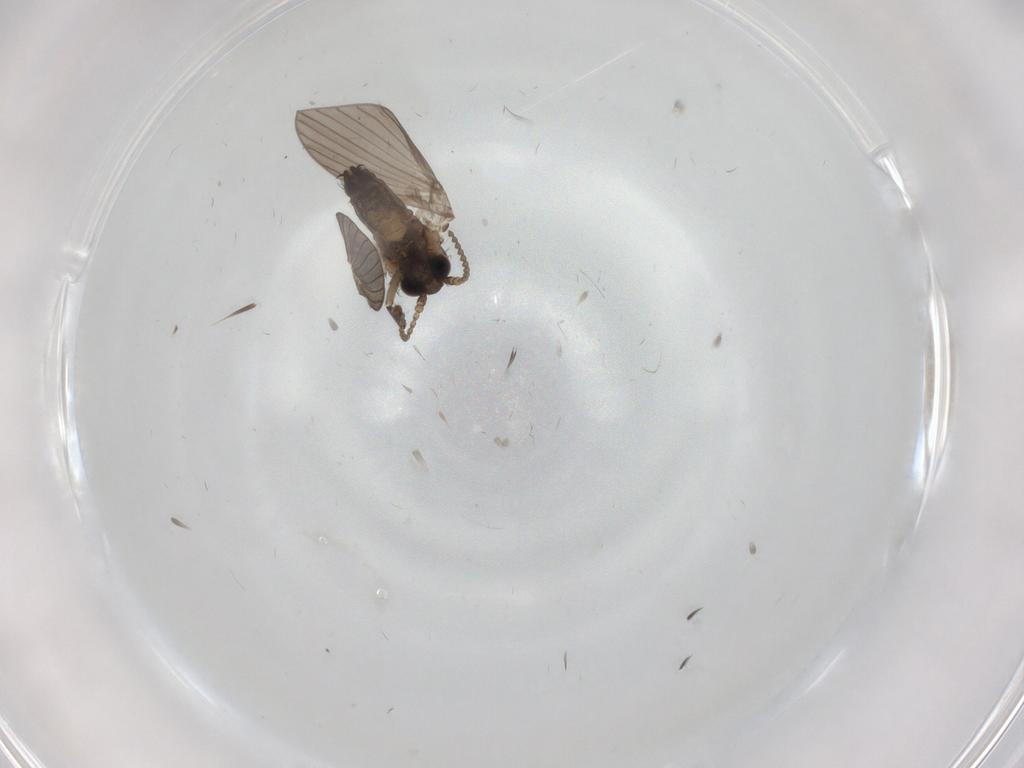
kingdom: Animalia
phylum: Arthropoda
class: Insecta
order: Diptera
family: Psychodidae
